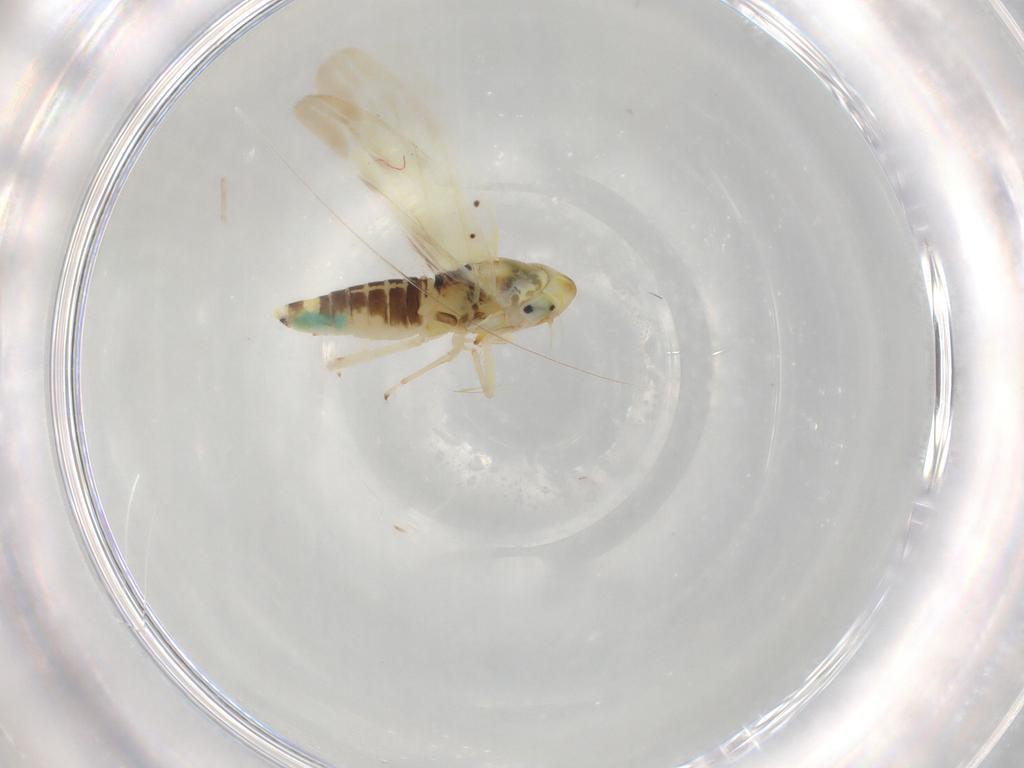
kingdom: Animalia
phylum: Arthropoda
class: Insecta
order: Hemiptera
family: Cicadellidae
